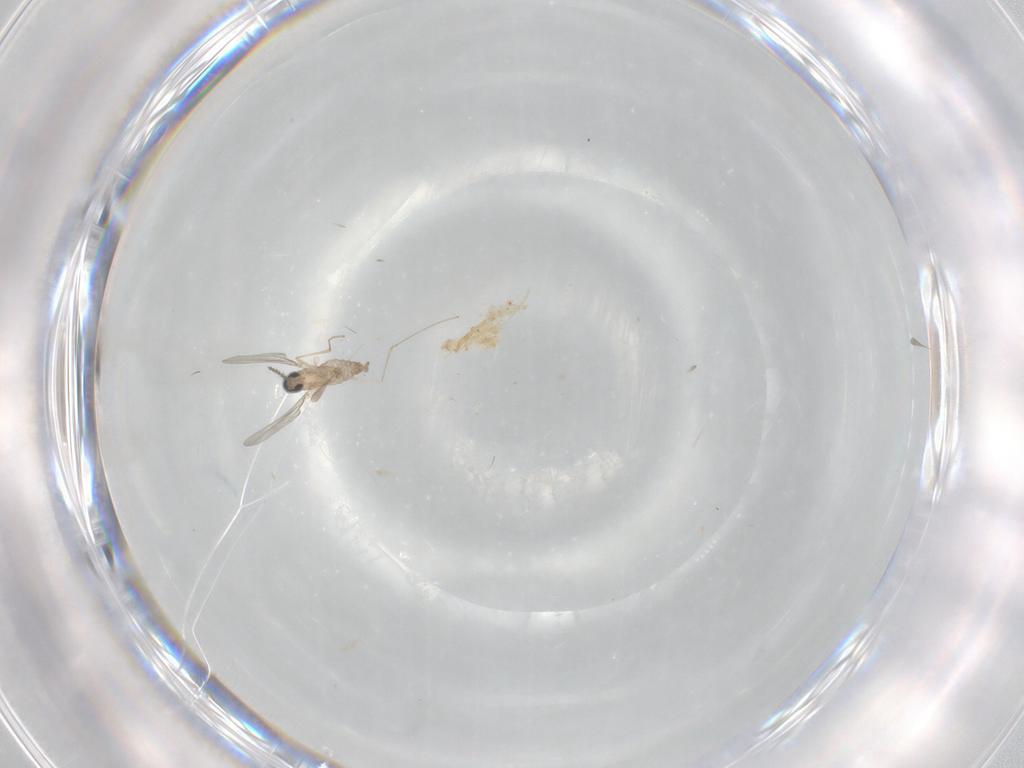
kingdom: Animalia
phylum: Arthropoda
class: Insecta
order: Diptera
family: Cecidomyiidae
